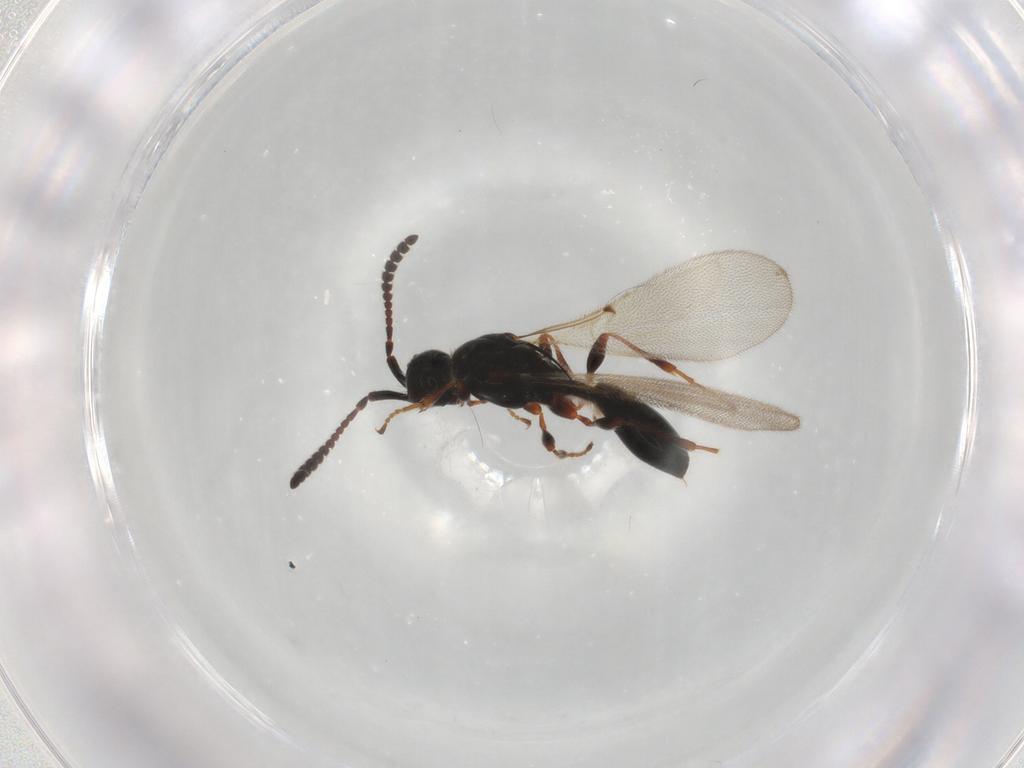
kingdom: Animalia
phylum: Arthropoda
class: Insecta
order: Hymenoptera
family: Diapriidae
